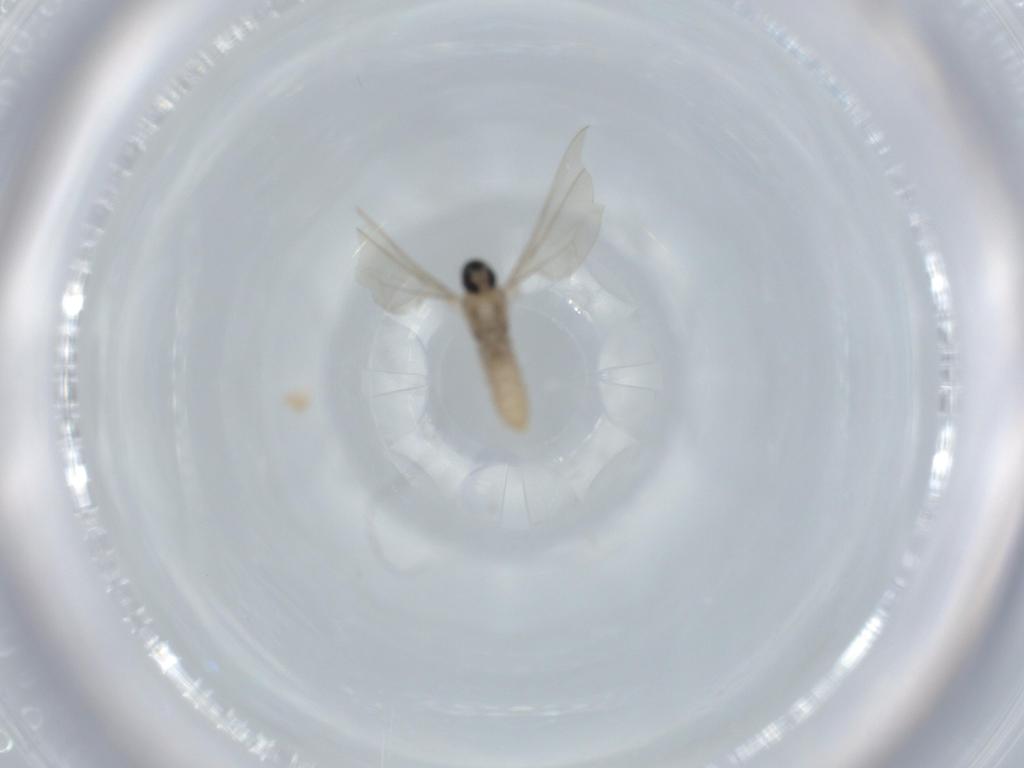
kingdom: Animalia
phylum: Arthropoda
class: Insecta
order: Diptera
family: Cecidomyiidae
